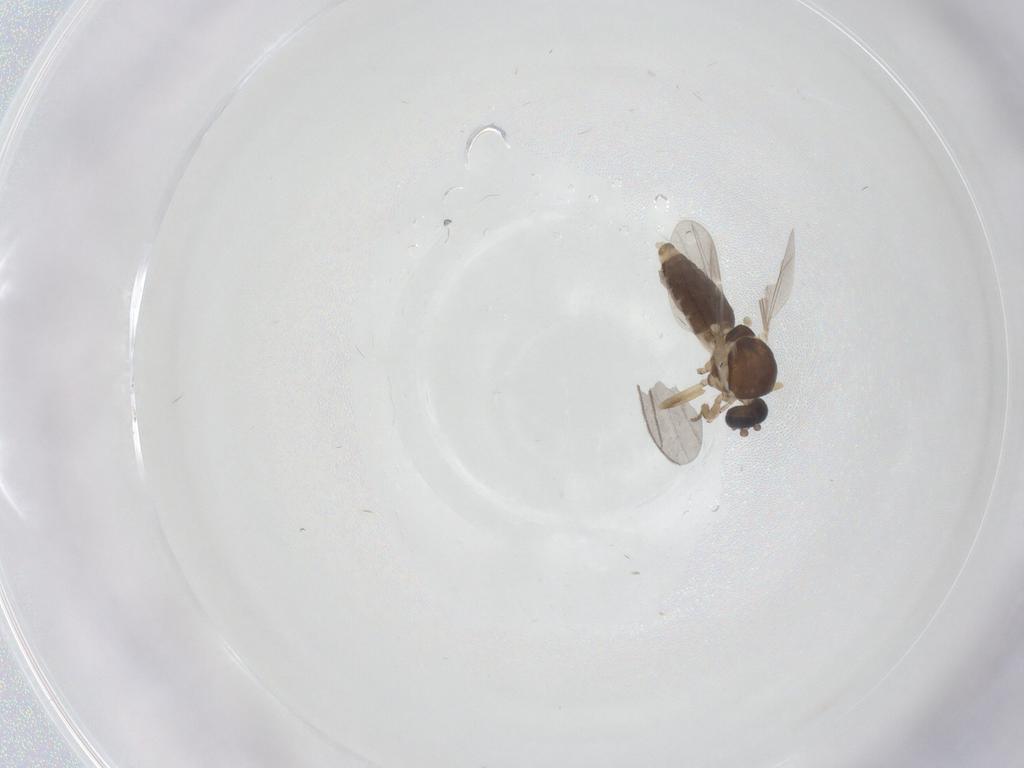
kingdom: Animalia
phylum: Arthropoda
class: Insecta
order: Diptera
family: Ceratopogonidae
